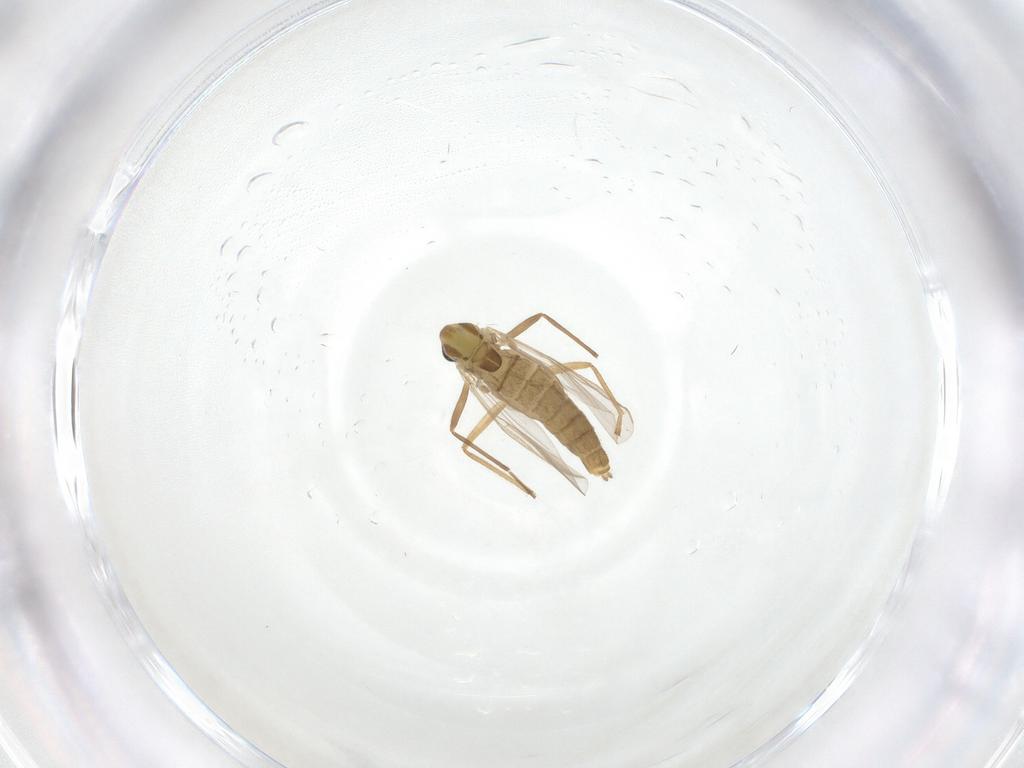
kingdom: Animalia
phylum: Arthropoda
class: Insecta
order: Diptera
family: Chironomidae
